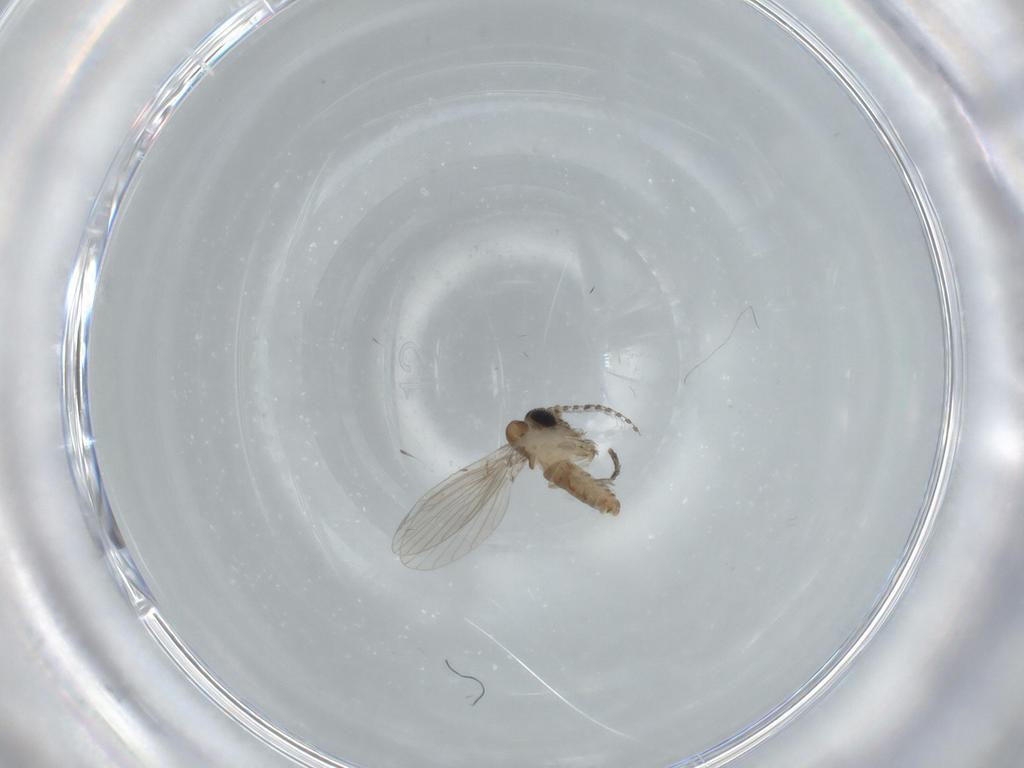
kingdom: Animalia
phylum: Arthropoda
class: Insecta
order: Diptera
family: Psychodidae
